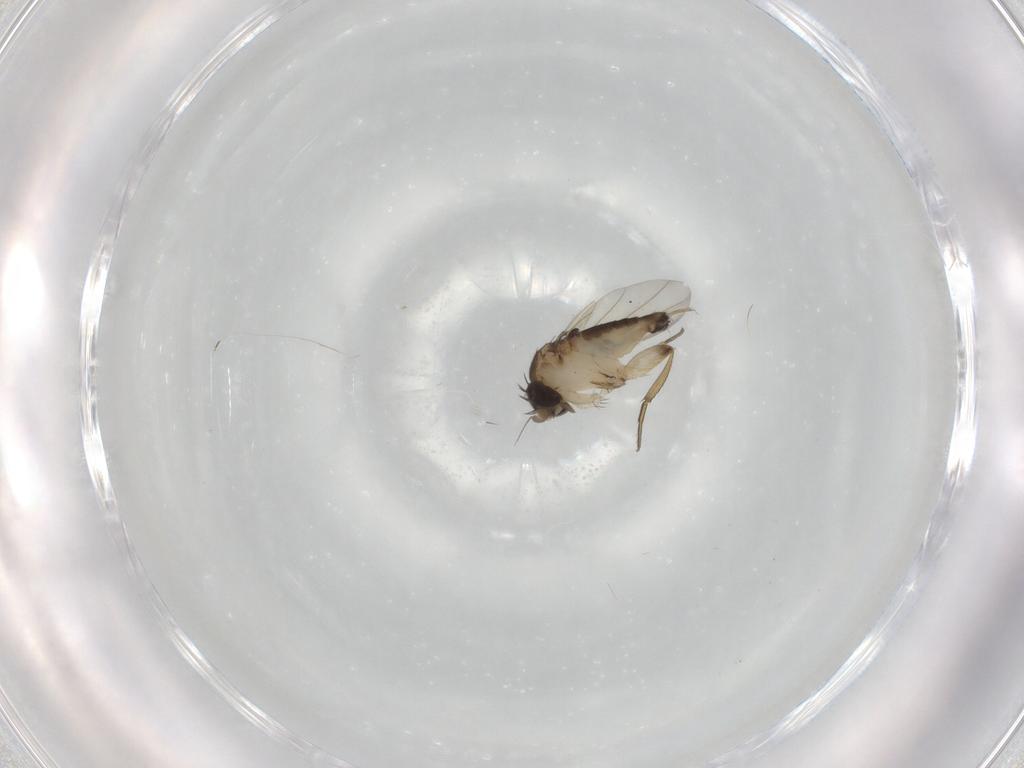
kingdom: Animalia
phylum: Arthropoda
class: Insecta
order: Diptera
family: Phoridae
